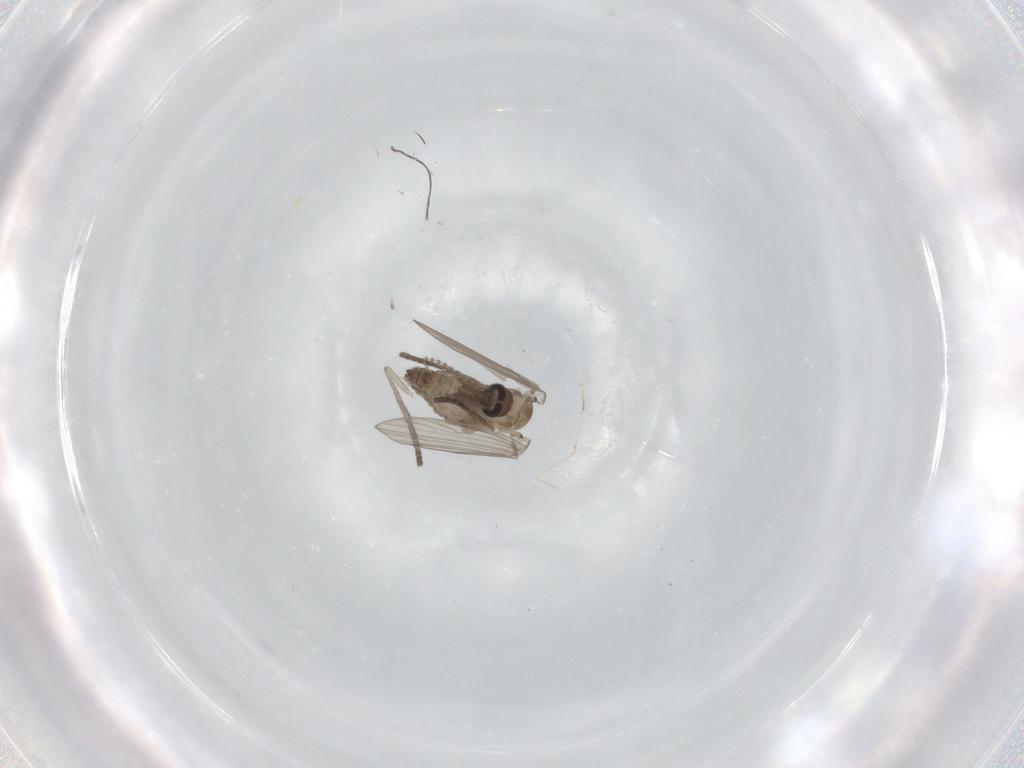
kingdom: Animalia
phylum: Arthropoda
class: Insecta
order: Diptera
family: Psychodidae
